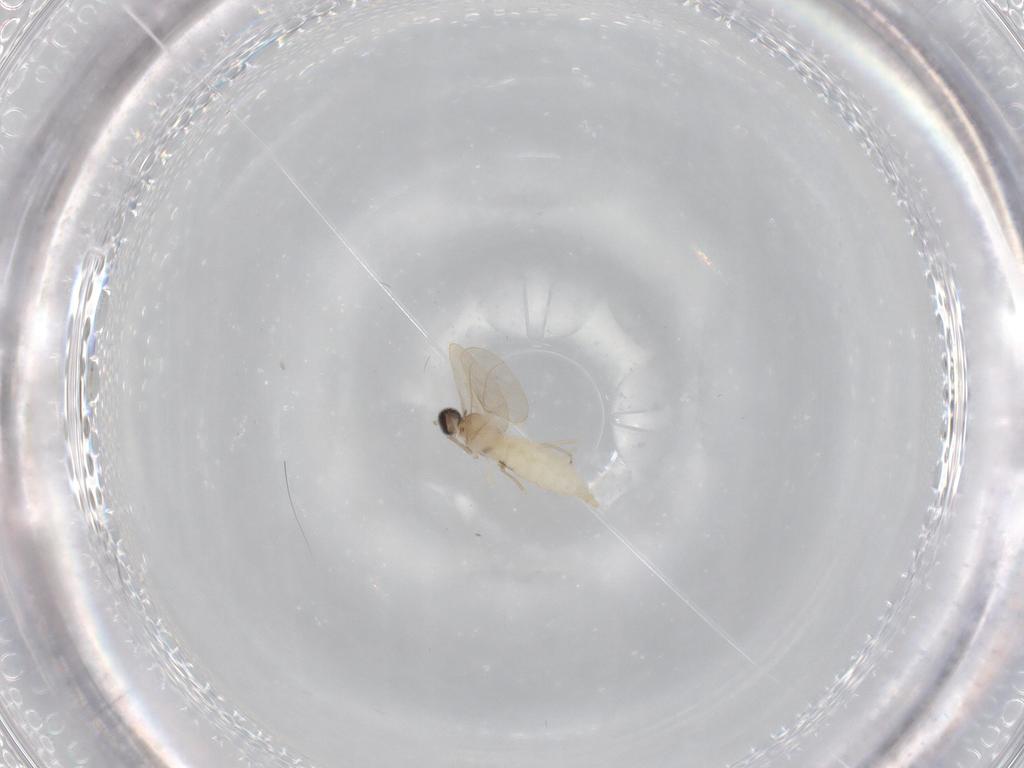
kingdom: Animalia
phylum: Arthropoda
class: Insecta
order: Diptera
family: Cecidomyiidae
